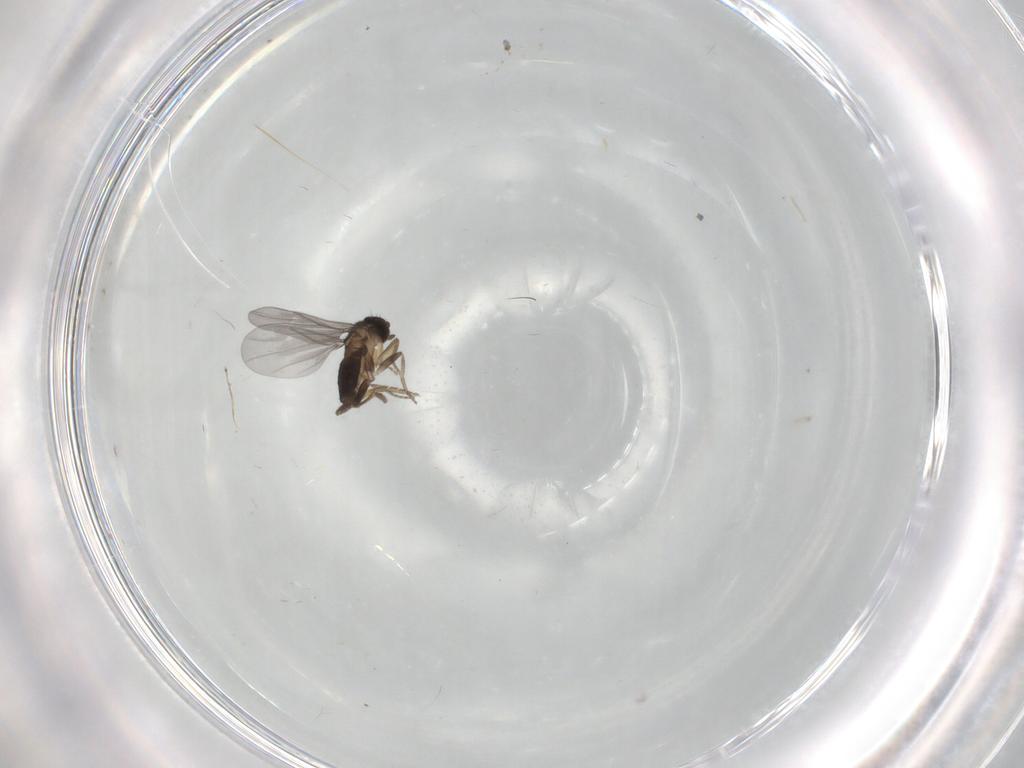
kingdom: Animalia
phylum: Arthropoda
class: Insecta
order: Diptera
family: Chironomidae
